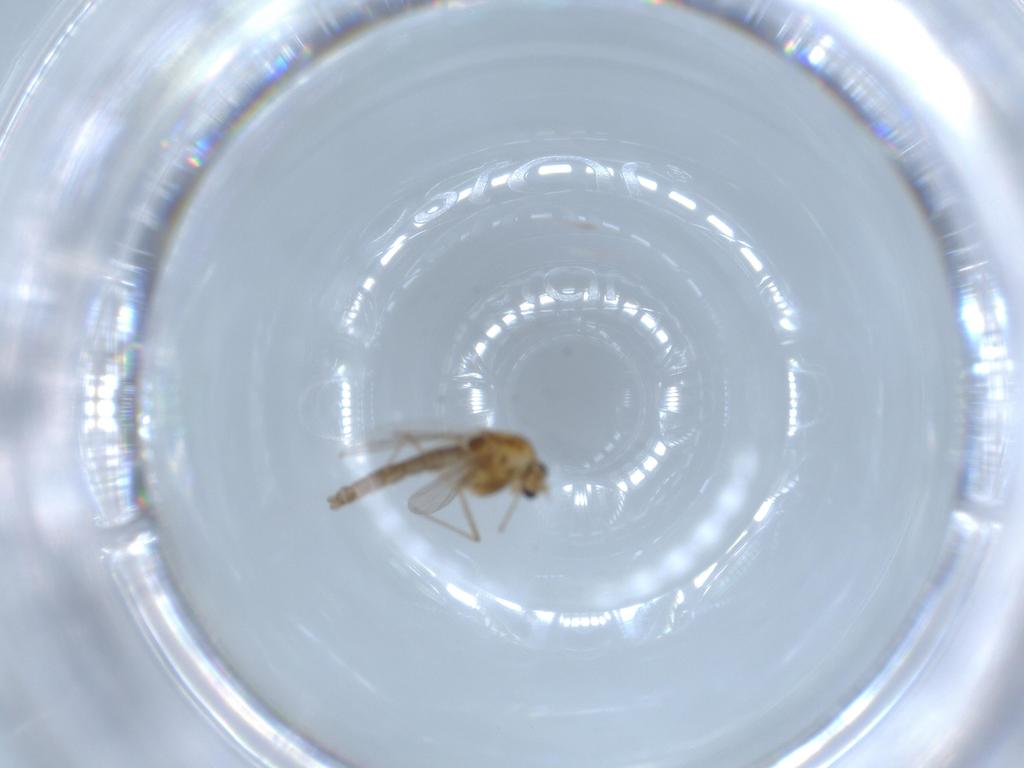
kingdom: Animalia
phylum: Arthropoda
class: Insecta
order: Diptera
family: Chironomidae
